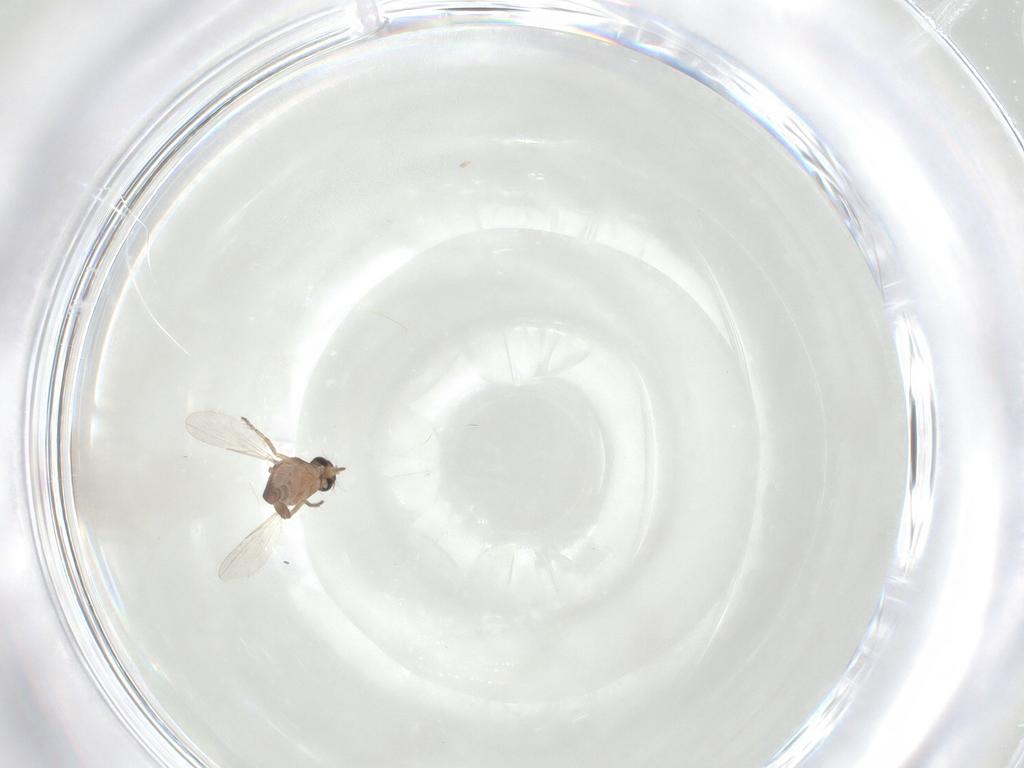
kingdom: Animalia
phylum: Arthropoda
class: Insecta
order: Diptera
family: Ceratopogonidae
